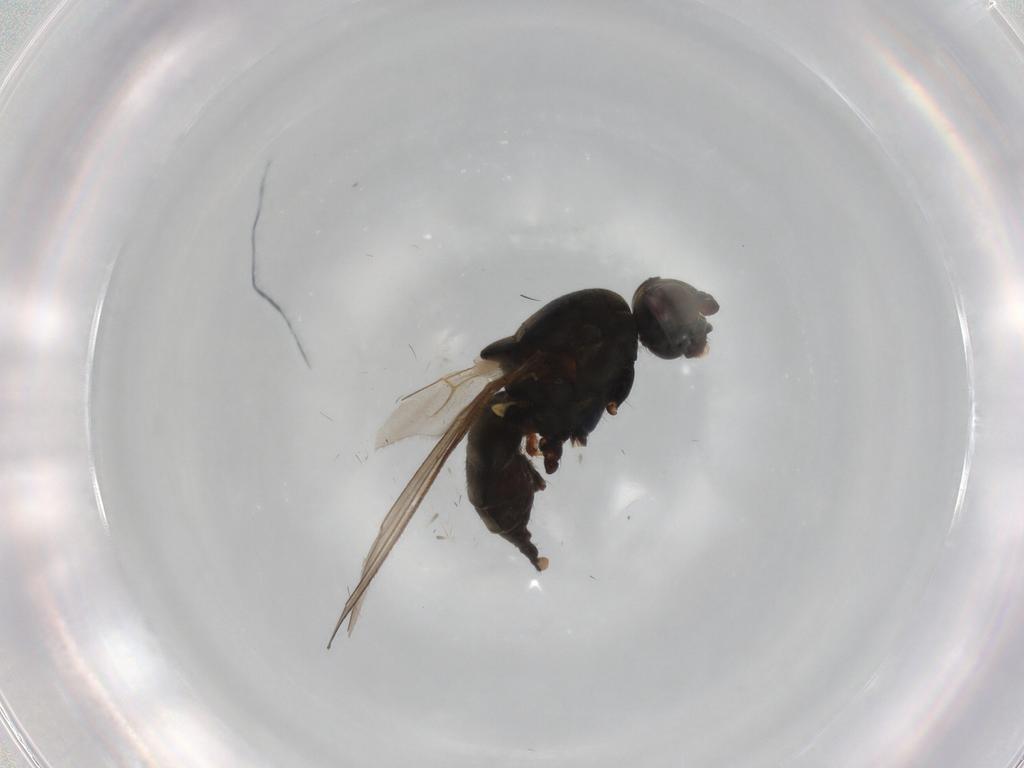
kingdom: Animalia
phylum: Arthropoda
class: Insecta
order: Diptera
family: Sphaeroceridae
